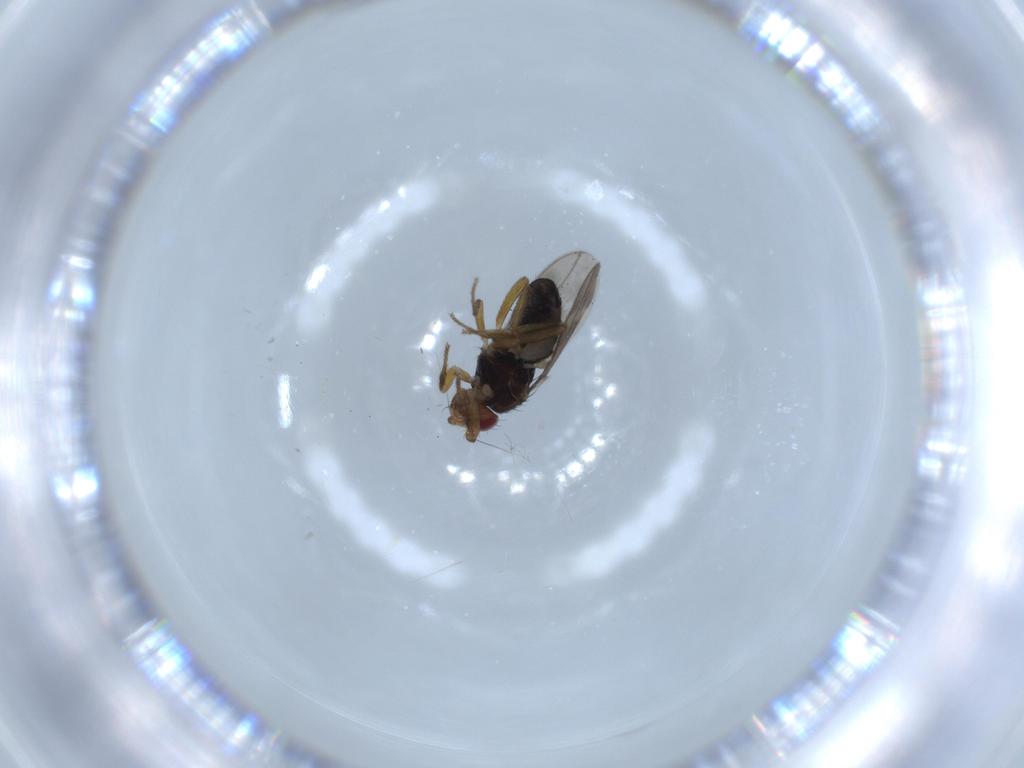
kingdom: Animalia
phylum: Arthropoda
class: Insecta
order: Diptera
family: Sphaeroceridae
